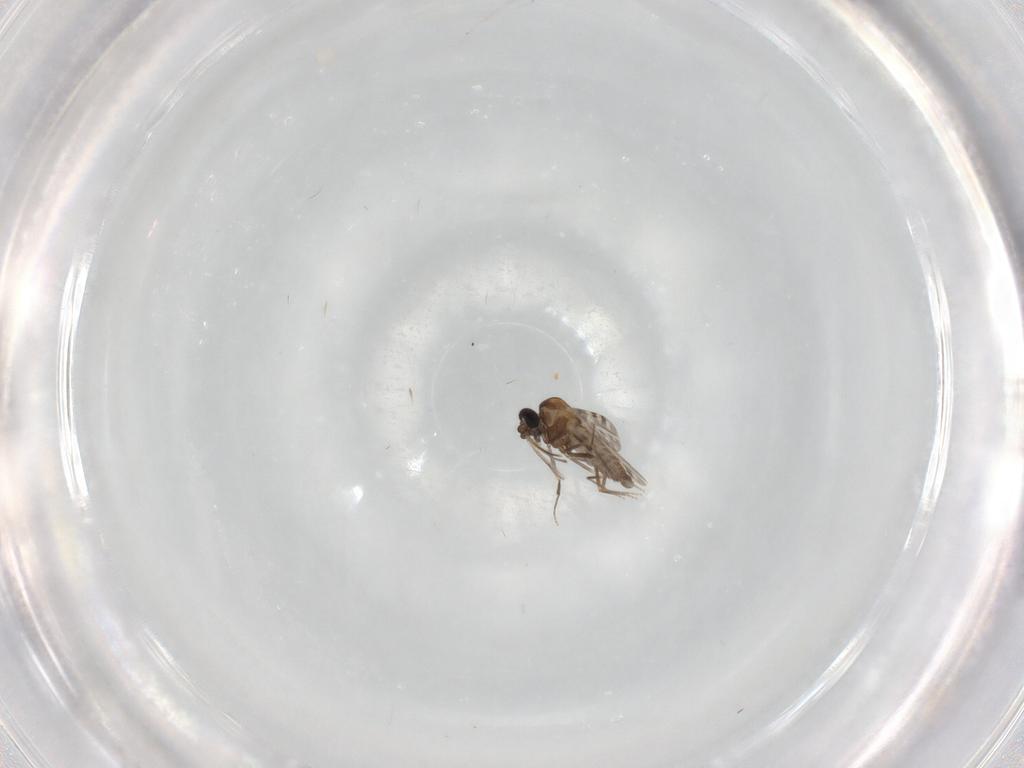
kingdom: Animalia
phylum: Arthropoda
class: Insecta
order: Diptera
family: Ceratopogonidae
